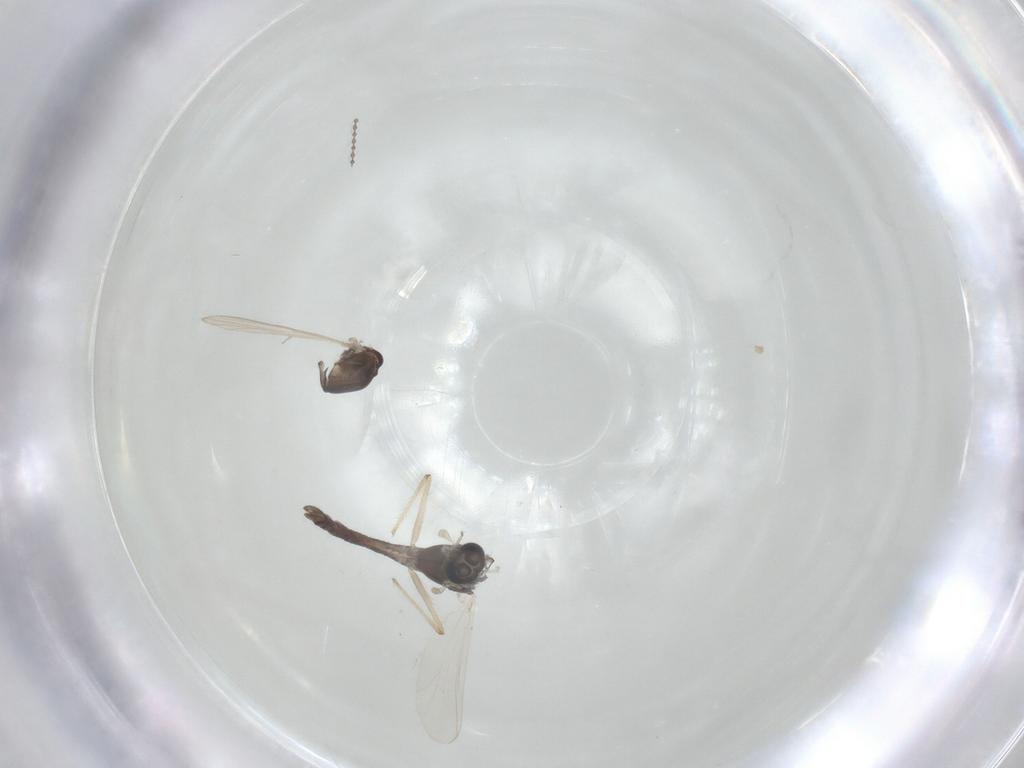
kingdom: Animalia
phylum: Arthropoda
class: Insecta
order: Diptera
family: Chironomidae
